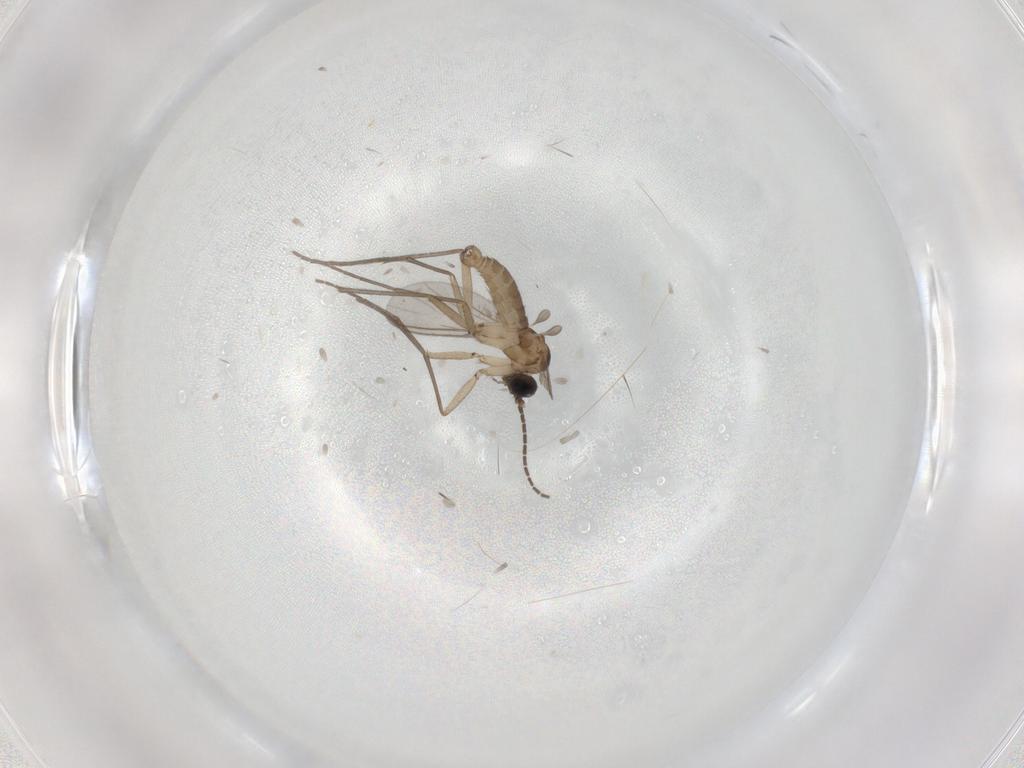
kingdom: Animalia
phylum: Arthropoda
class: Insecta
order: Diptera
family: Sciaridae
